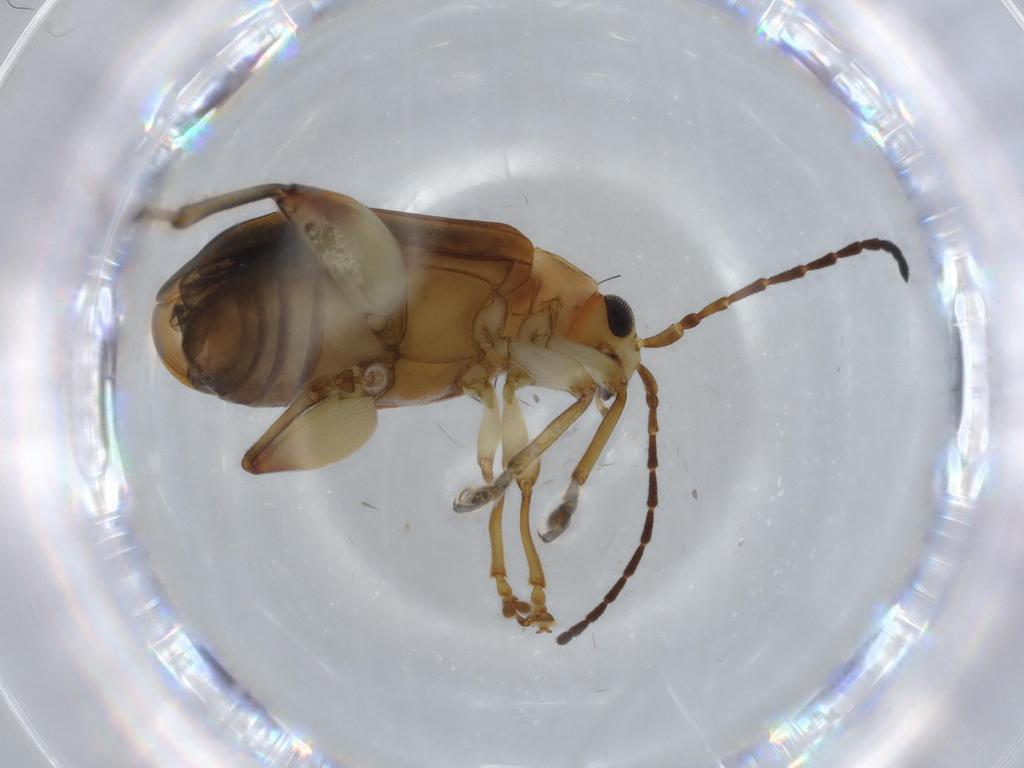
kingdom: Animalia
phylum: Arthropoda
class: Insecta
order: Coleoptera
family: Chrysomelidae
